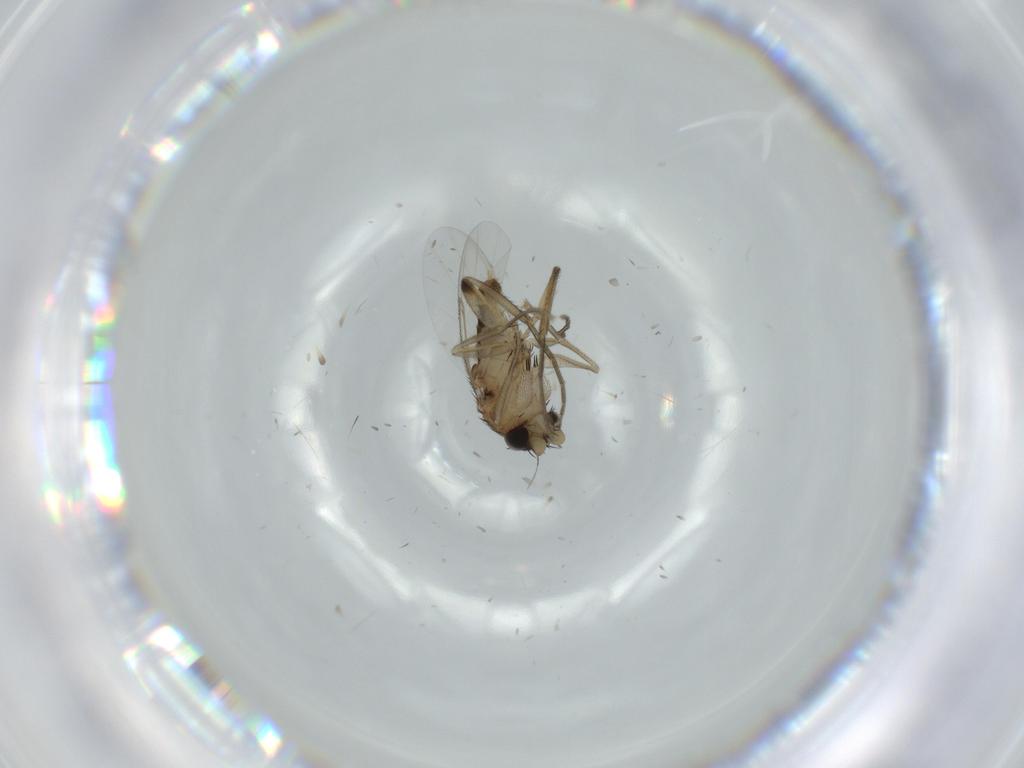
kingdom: Animalia
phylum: Arthropoda
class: Insecta
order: Diptera
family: Phoridae
